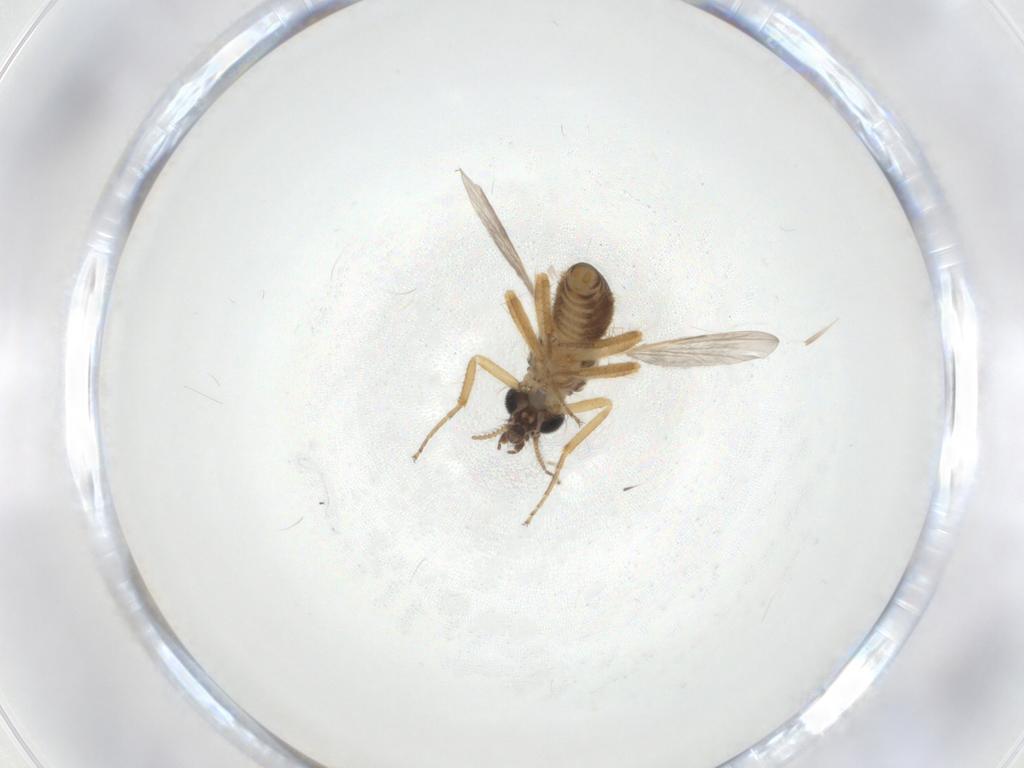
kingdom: Animalia
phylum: Arthropoda
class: Insecta
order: Diptera
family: Ceratopogonidae
